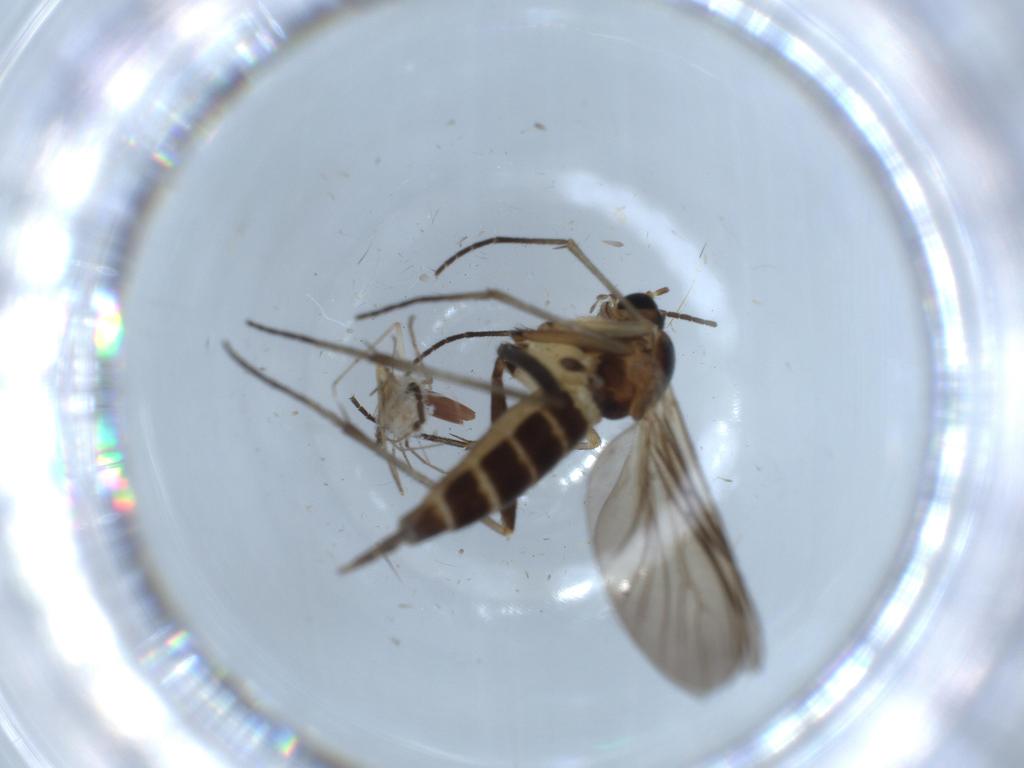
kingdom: Animalia
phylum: Arthropoda
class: Insecta
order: Diptera
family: Sciaridae
